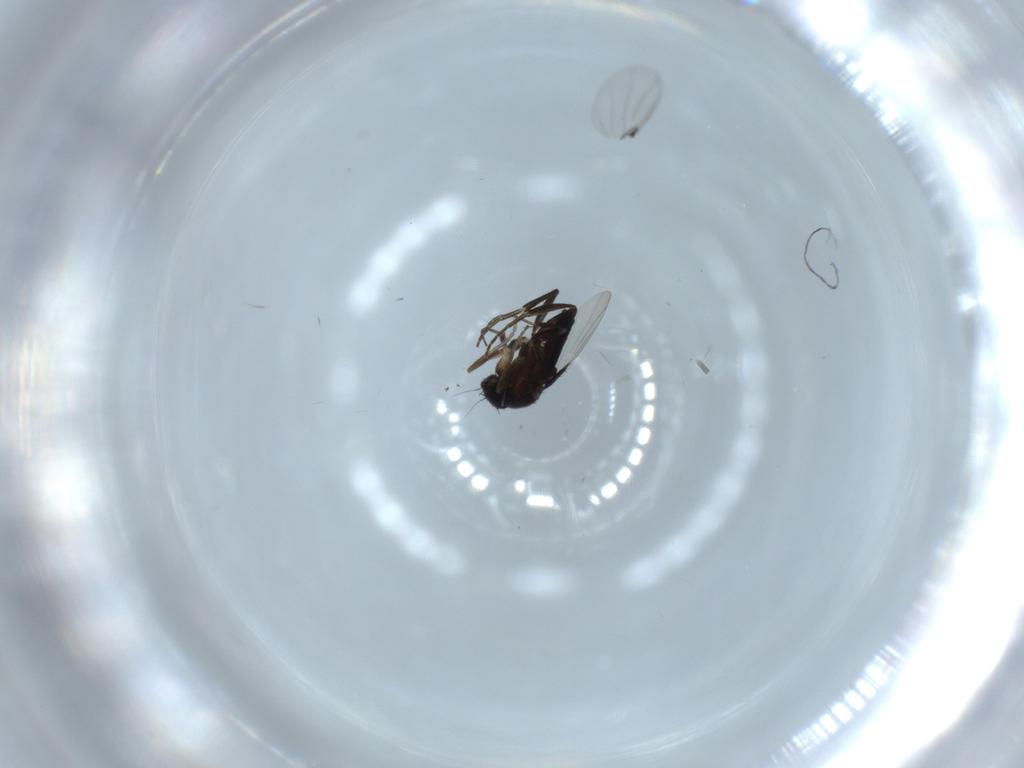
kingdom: Animalia
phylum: Arthropoda
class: Insecta
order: Diptera
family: Phoridae
